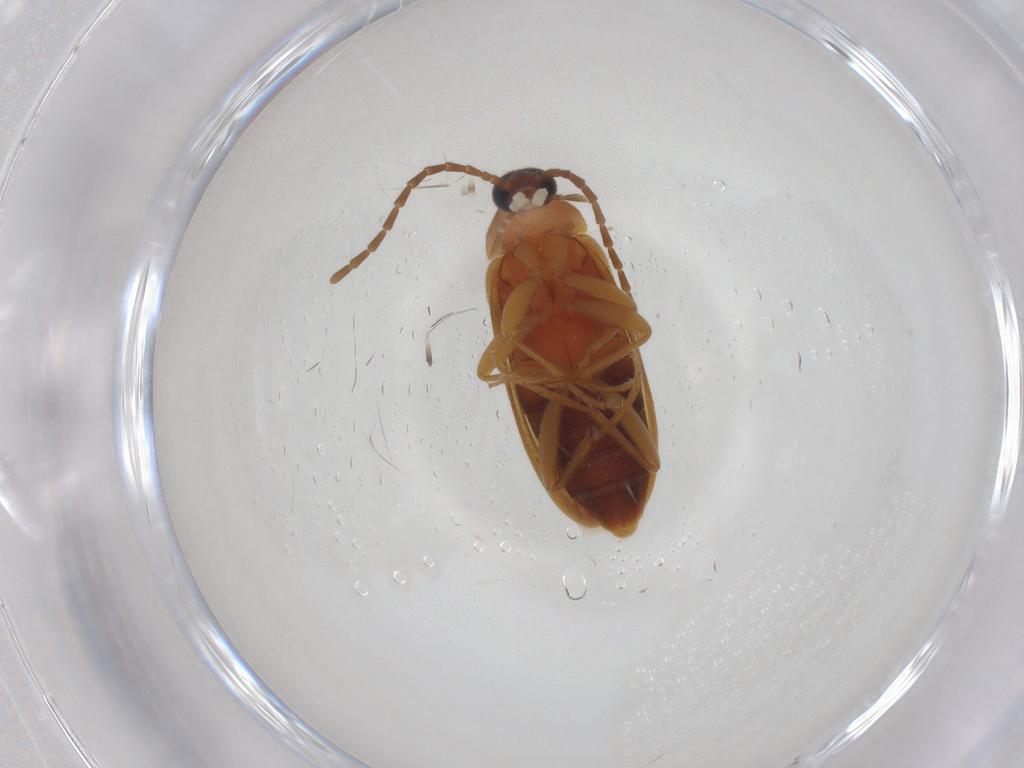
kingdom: Animalia
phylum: Arthropoda
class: Insecta
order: Coleoptera
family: Scraptiidae
